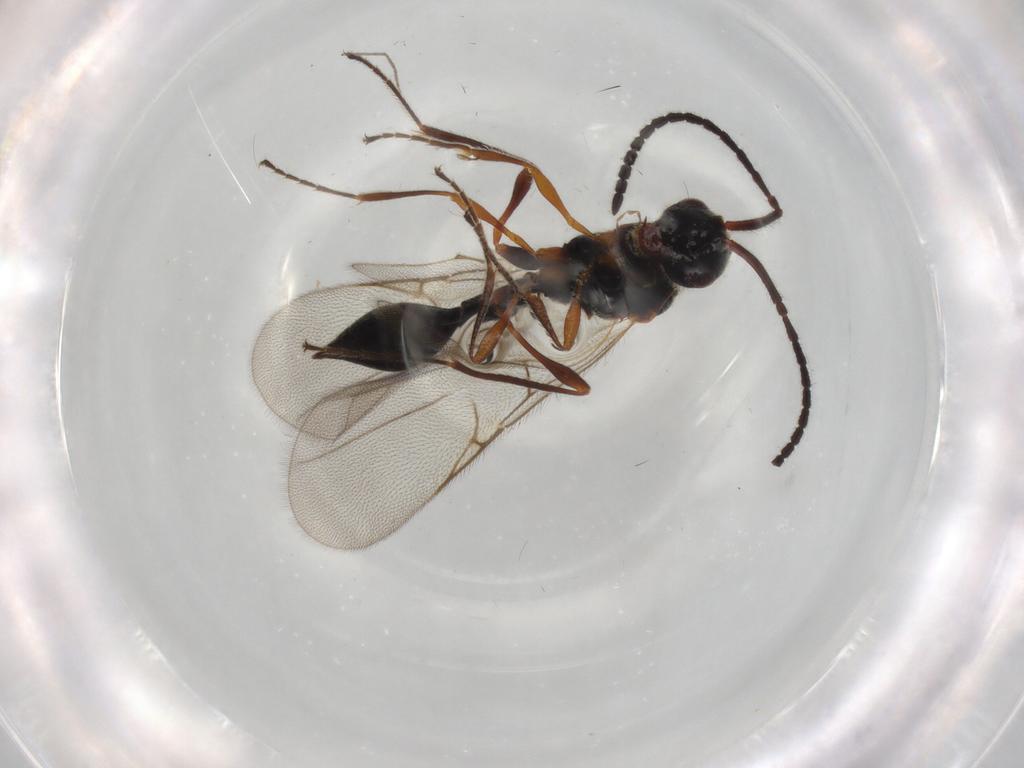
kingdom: Animalia
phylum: Arthropoda
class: Insecta
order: Hymenoptera
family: Diapriidae
